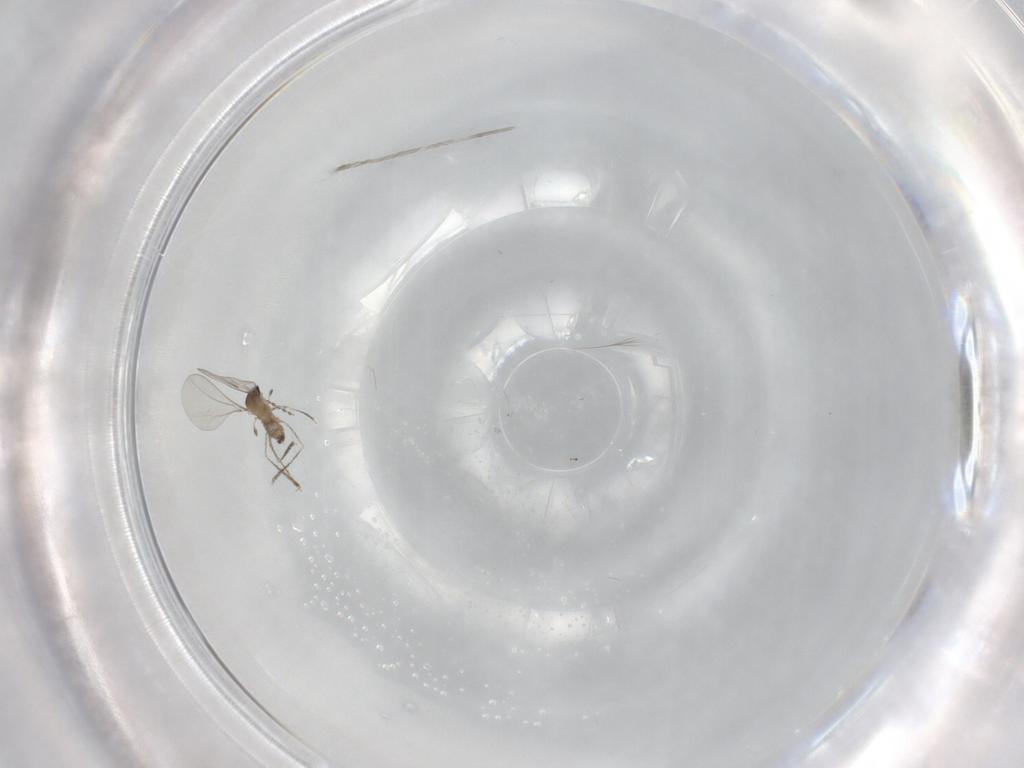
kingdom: Animalia
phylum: Arthropoda
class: Insecta
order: Diptera
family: Cecidomyiidae
